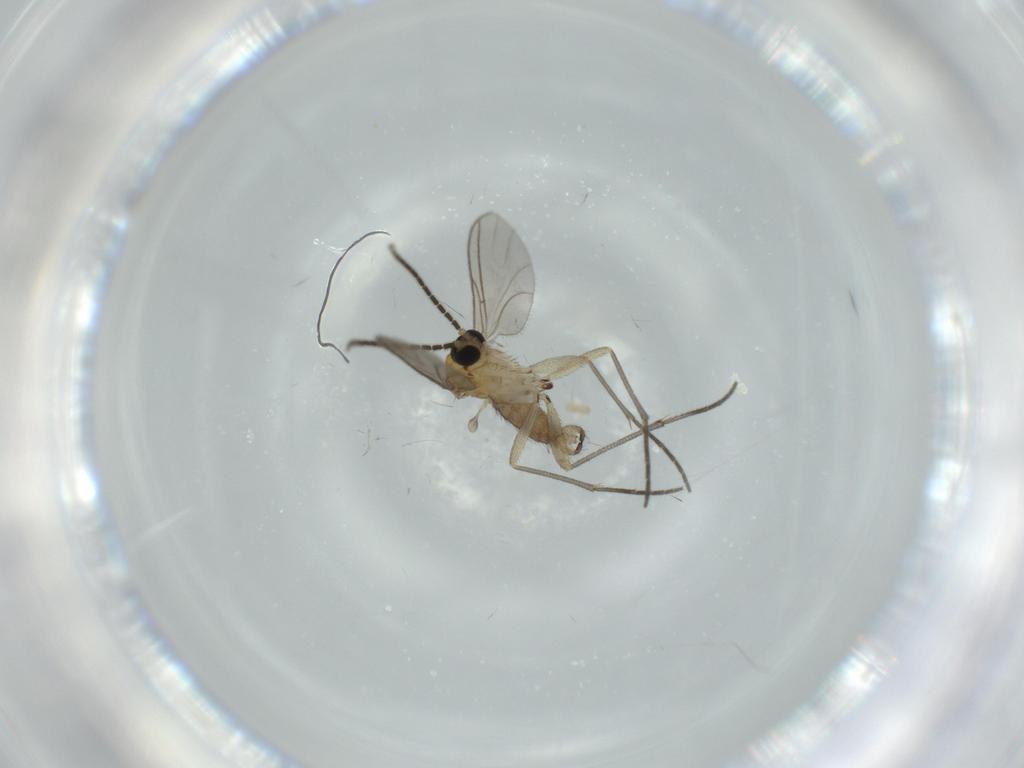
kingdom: Animalia
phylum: Arthropoda
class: Insecta
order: Diptera
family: Sciaridae
